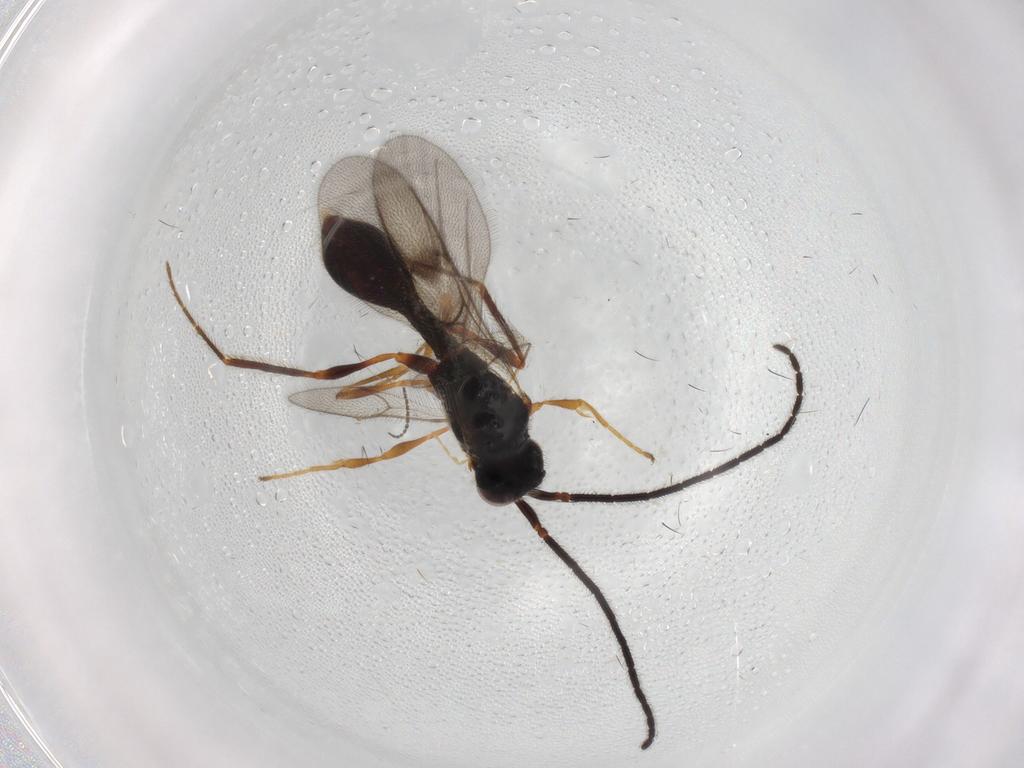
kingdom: Animalia
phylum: Arthropoda
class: Insecta
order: Hymenoptera
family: Diapriidae
